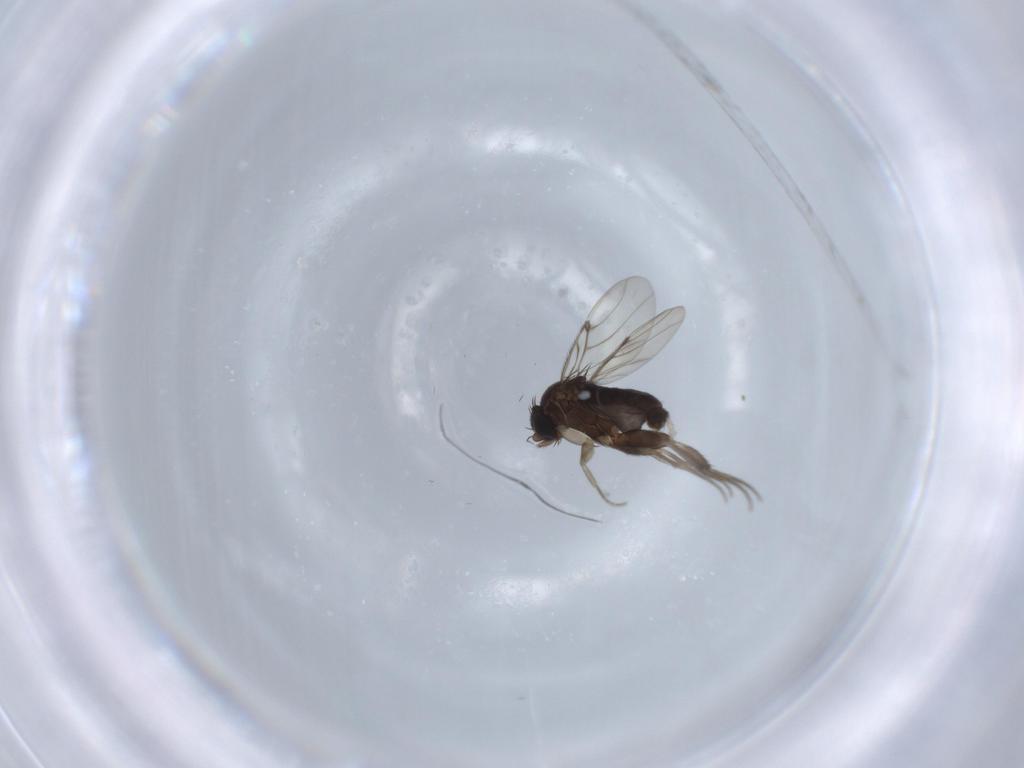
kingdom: Animalia
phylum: Arthropoda
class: Insecta
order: Diptera
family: Phoridae
